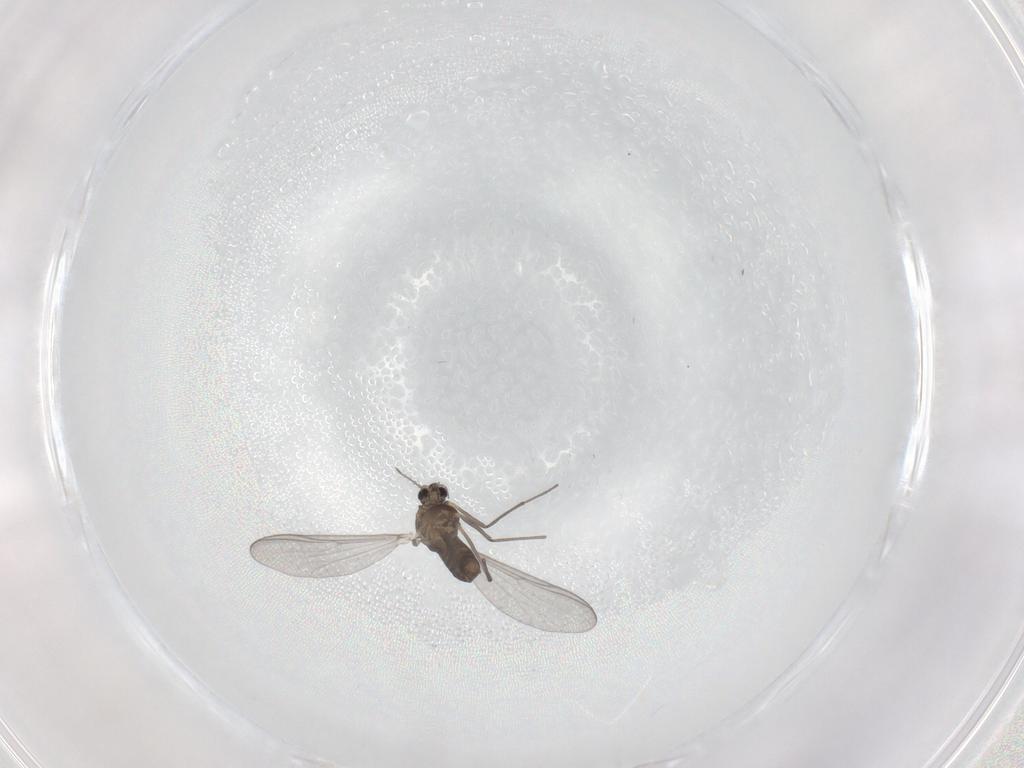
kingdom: Animalia
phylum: Arthropoda
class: Insecta
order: Diptera
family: Chironomidae
